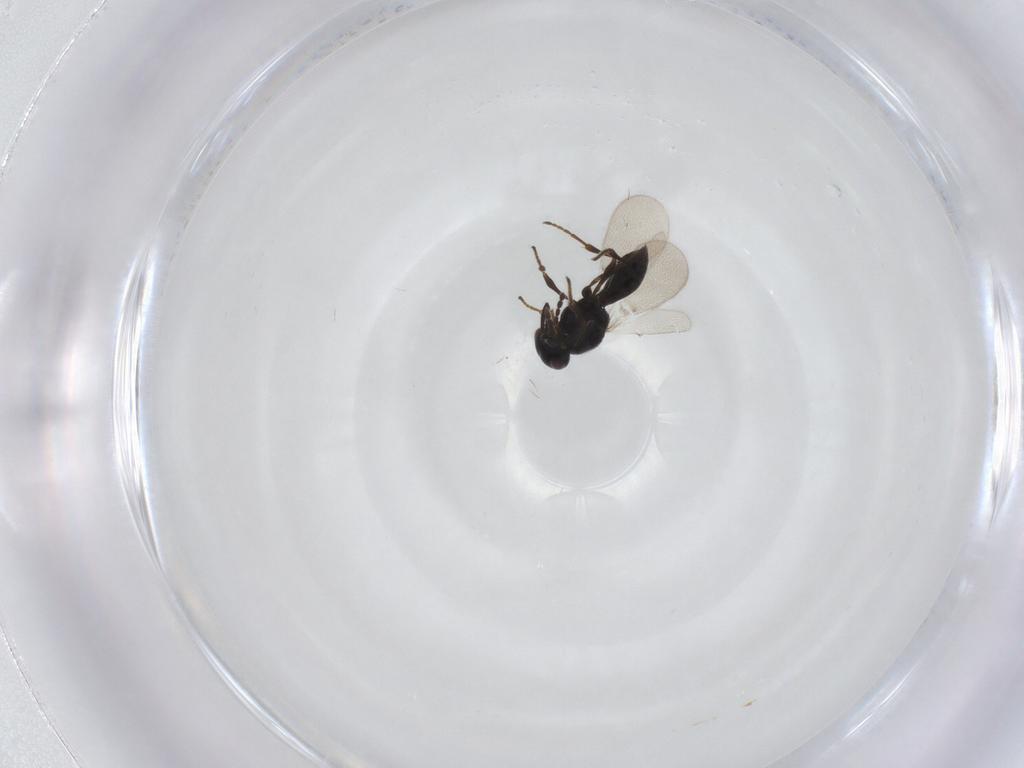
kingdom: Animalia
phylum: Arthropoda
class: Insecta
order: Hymenoptera
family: Platygastridae
